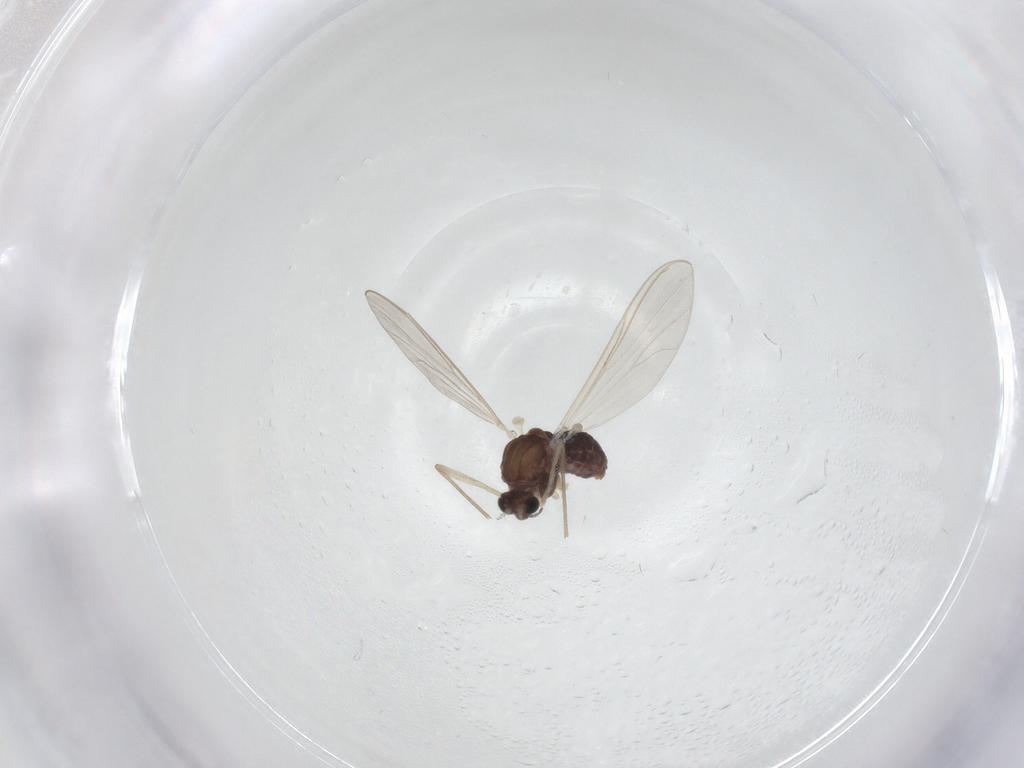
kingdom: Animalia
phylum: Arthropoda
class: Insecta
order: Diptera
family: Chironomidae
